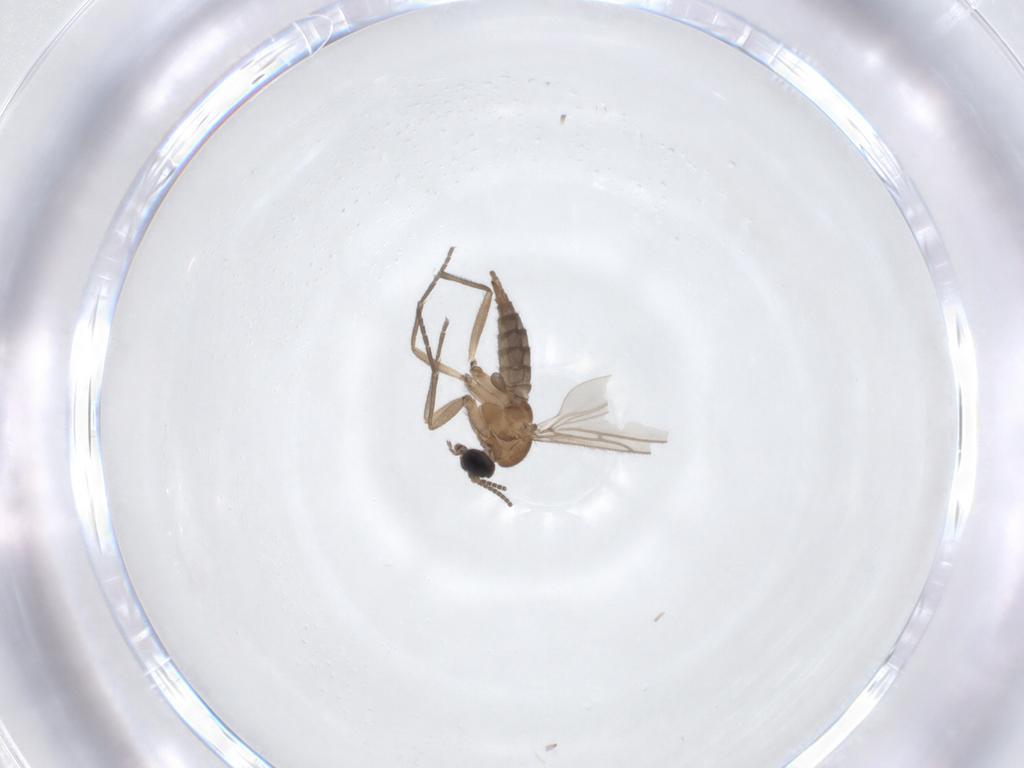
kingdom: Animalia
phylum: Arthropoda
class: Insecta
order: Diptera
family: Sciaridae
